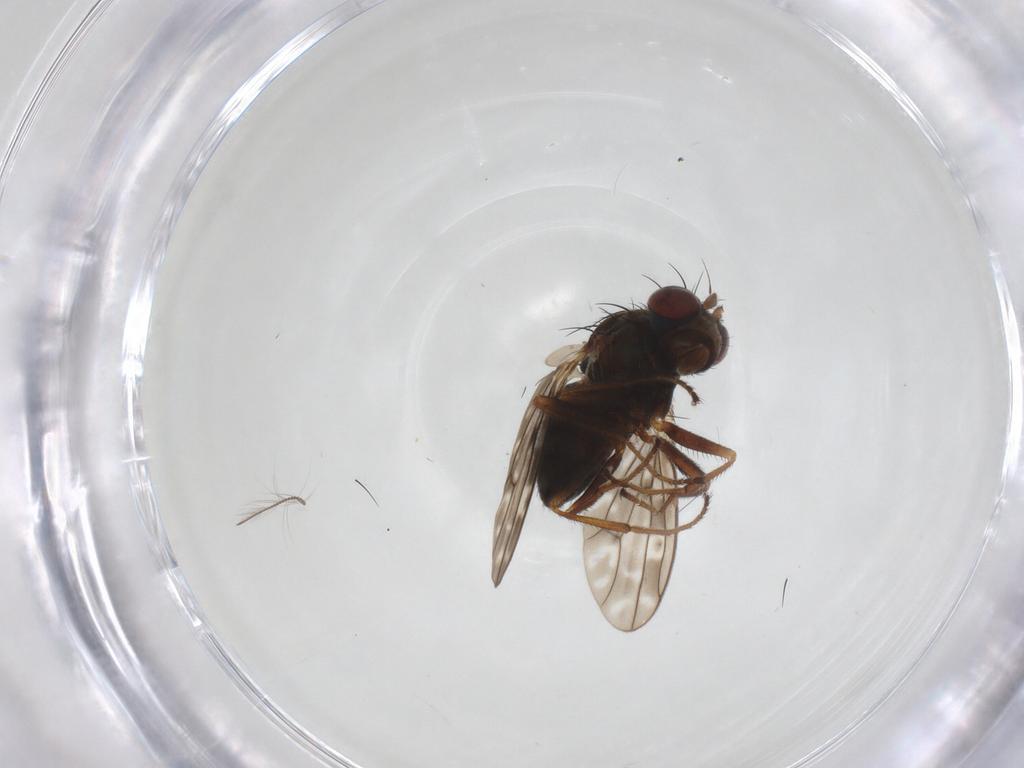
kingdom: Animalia
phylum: Arthropoda
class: Insecta
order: Diptera
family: Ephydridae
